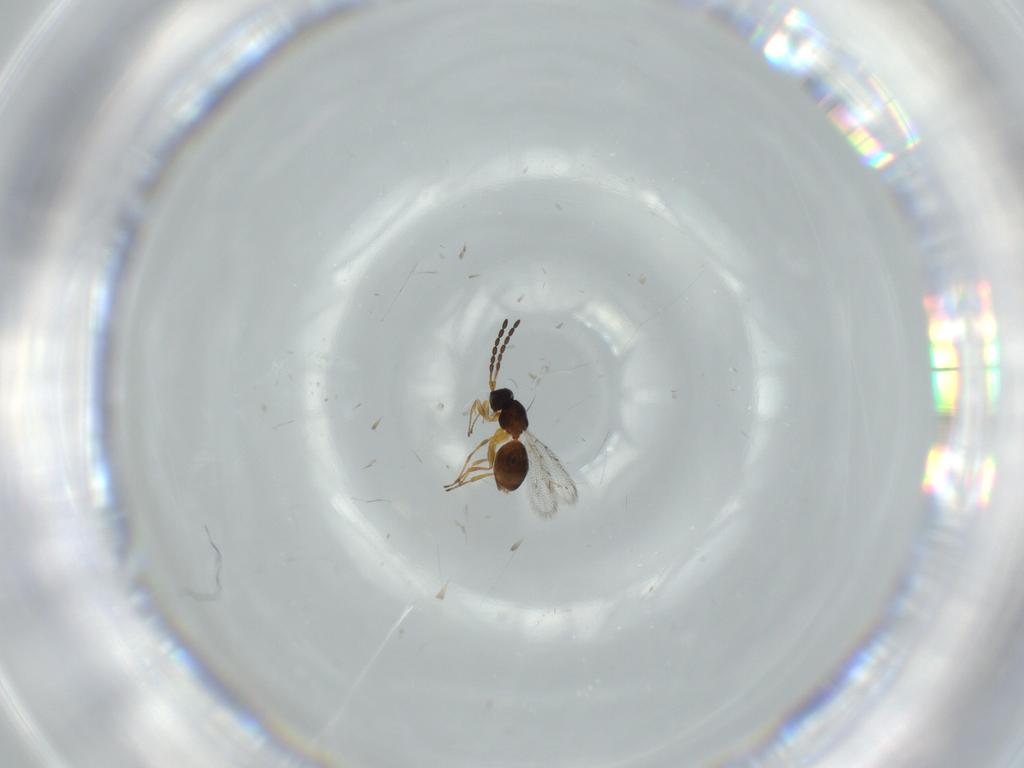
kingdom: Animalia
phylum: Arthropoda
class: Insecta
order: Hymenoptera
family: Figitidae
